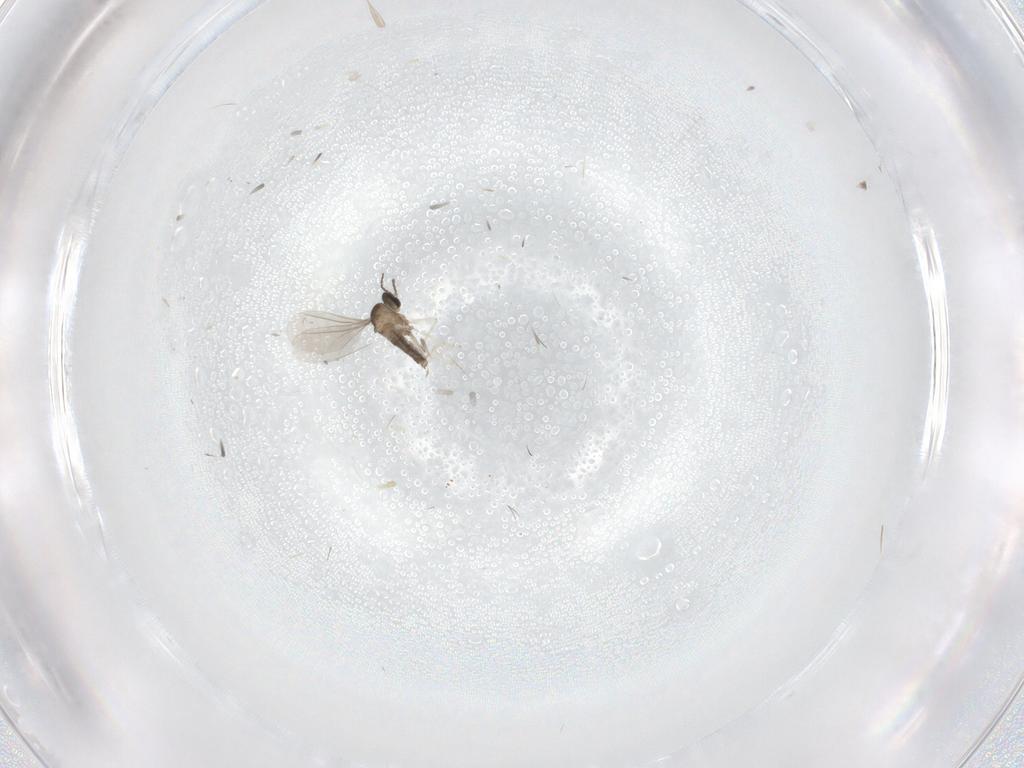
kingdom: Animalia
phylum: Arthropoda
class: Insecta
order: Diptera
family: Cecidomyiidae
